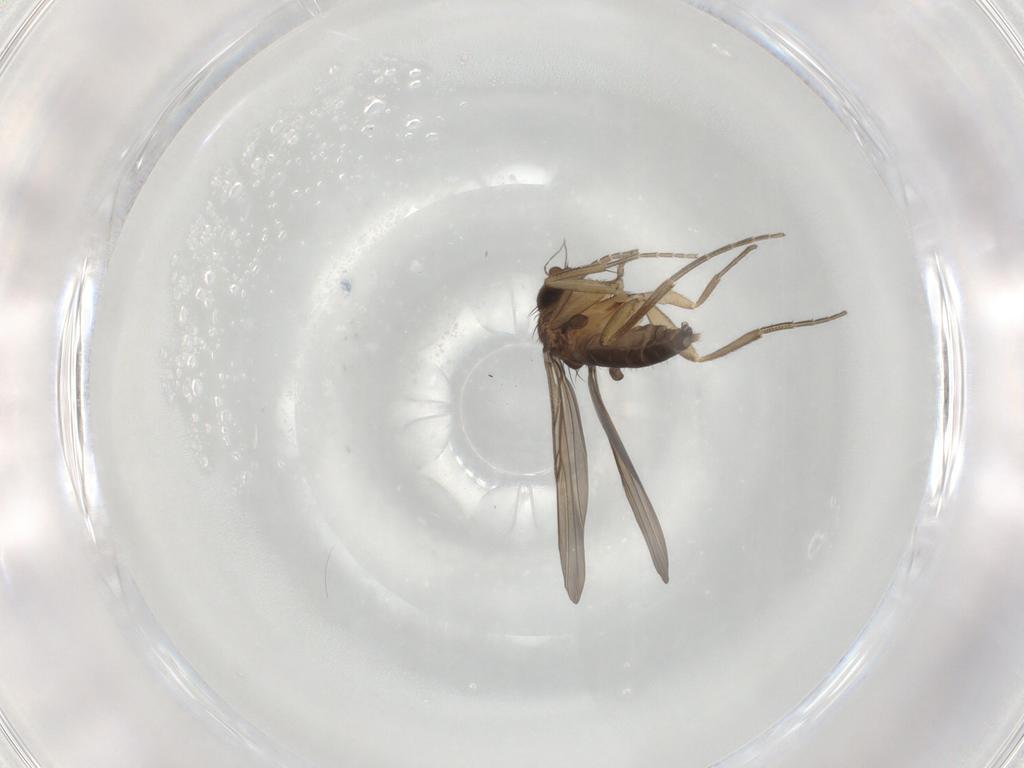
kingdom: Animalia
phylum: Arthropoda
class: Insecta
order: Diptera
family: Phoridae
